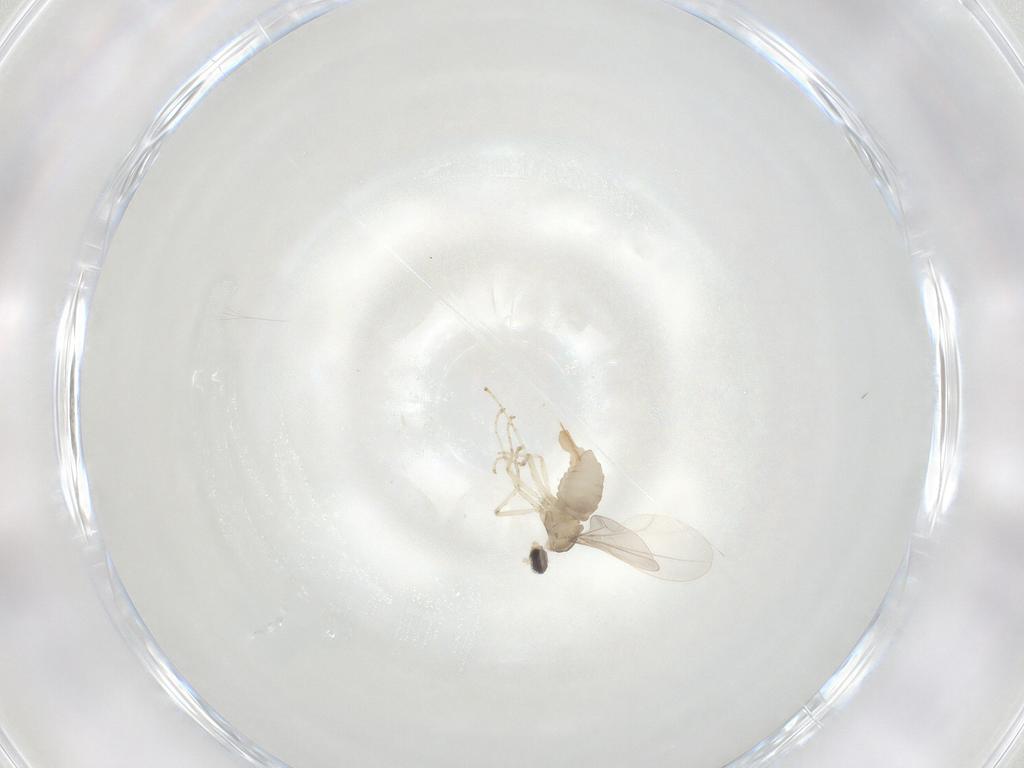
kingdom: Animalia
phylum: Arthropoda
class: Insecta
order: Diptera
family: Cecidomyiidae
